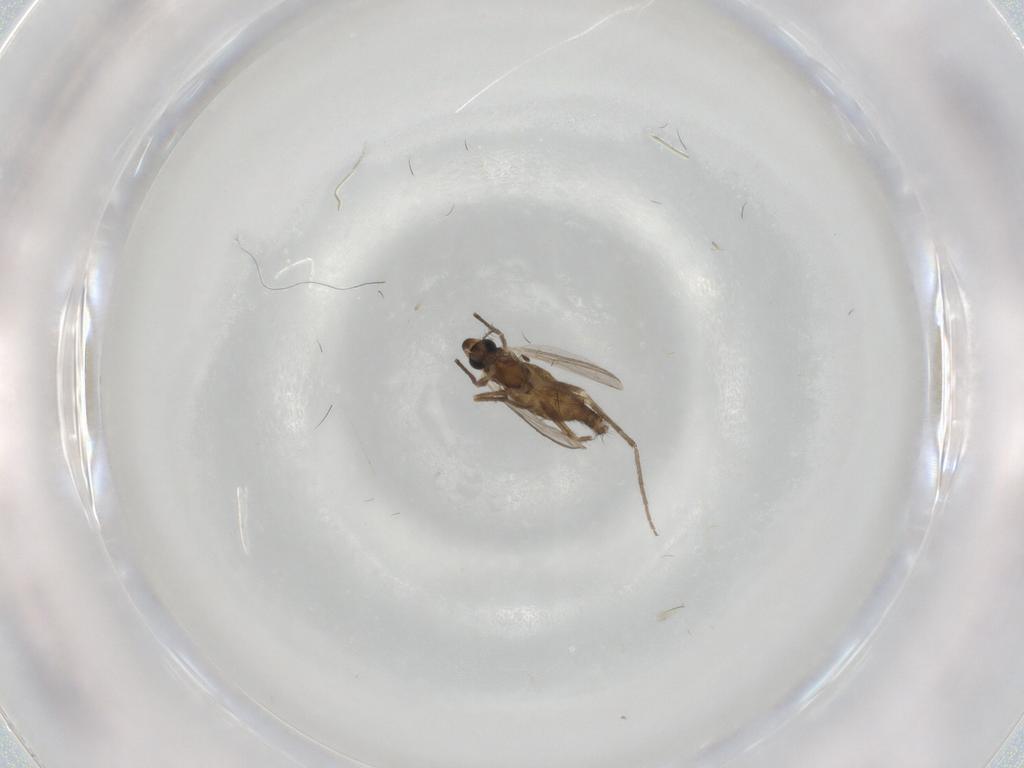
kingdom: Animalia
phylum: Arthropoda
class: Insecta
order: Diptera
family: Chironomidae
